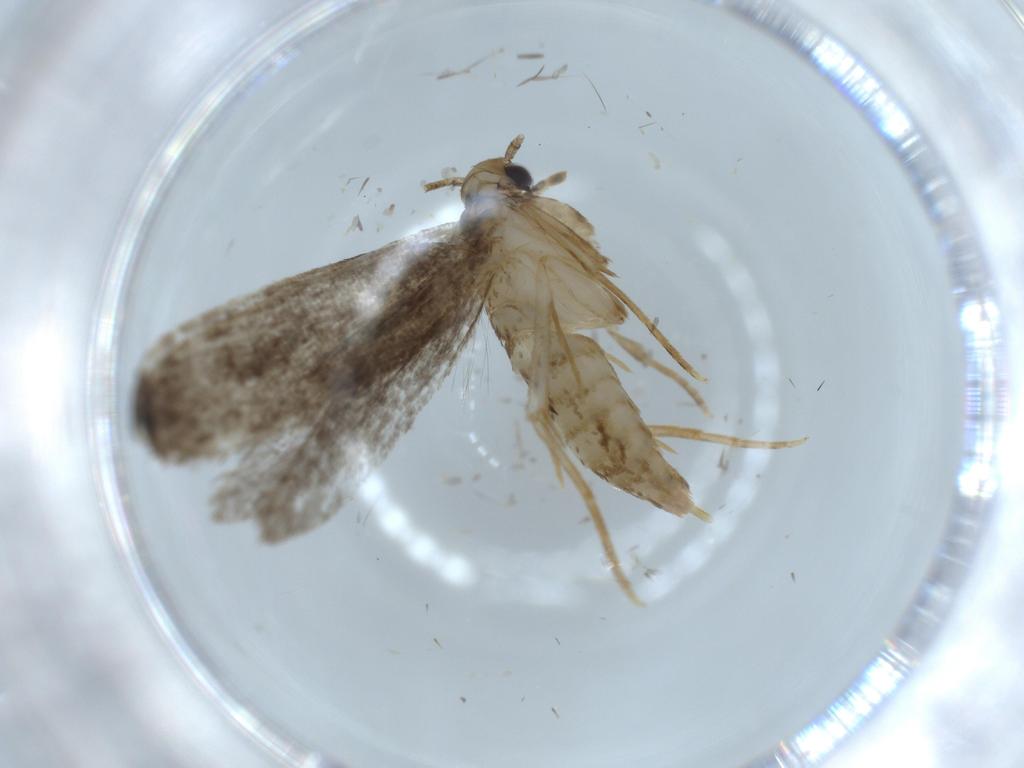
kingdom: Animalia
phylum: Arthropoda
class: Insecta
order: Lepidoptera
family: Tineidae
